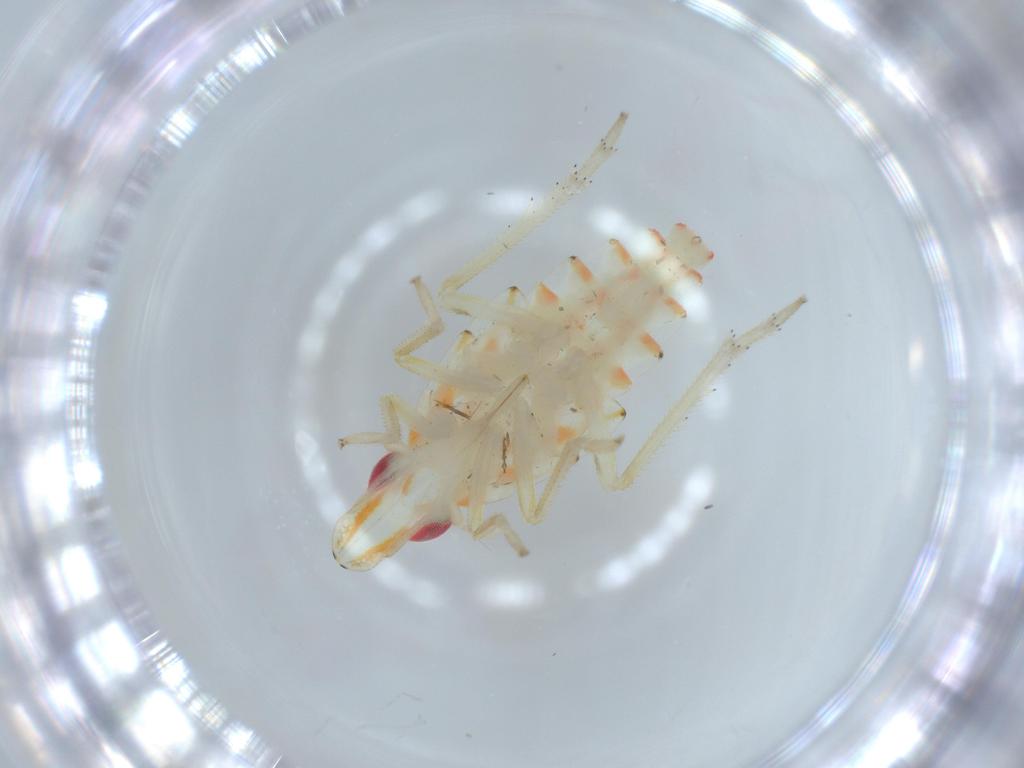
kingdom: Animalia
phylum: Arthropoda
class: Insecta
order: Hemiptera
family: Tropiduchidae
